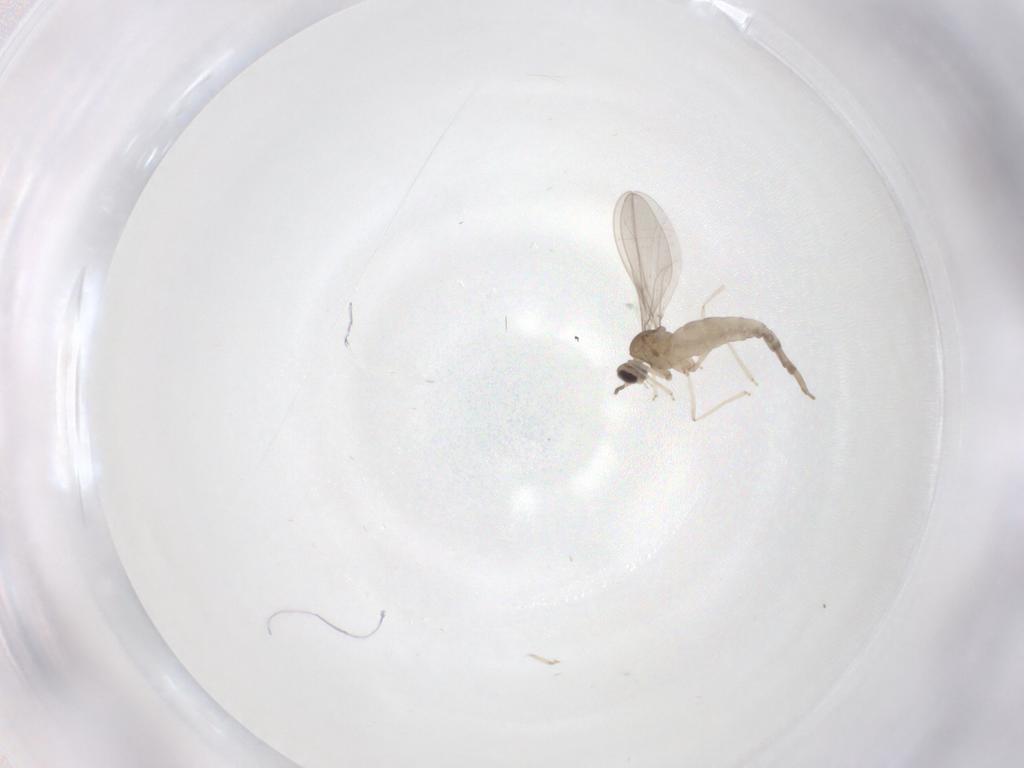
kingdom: Animalia
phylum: Arthropoda
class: Insecta
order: Diptera
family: Cecidomyiidae
